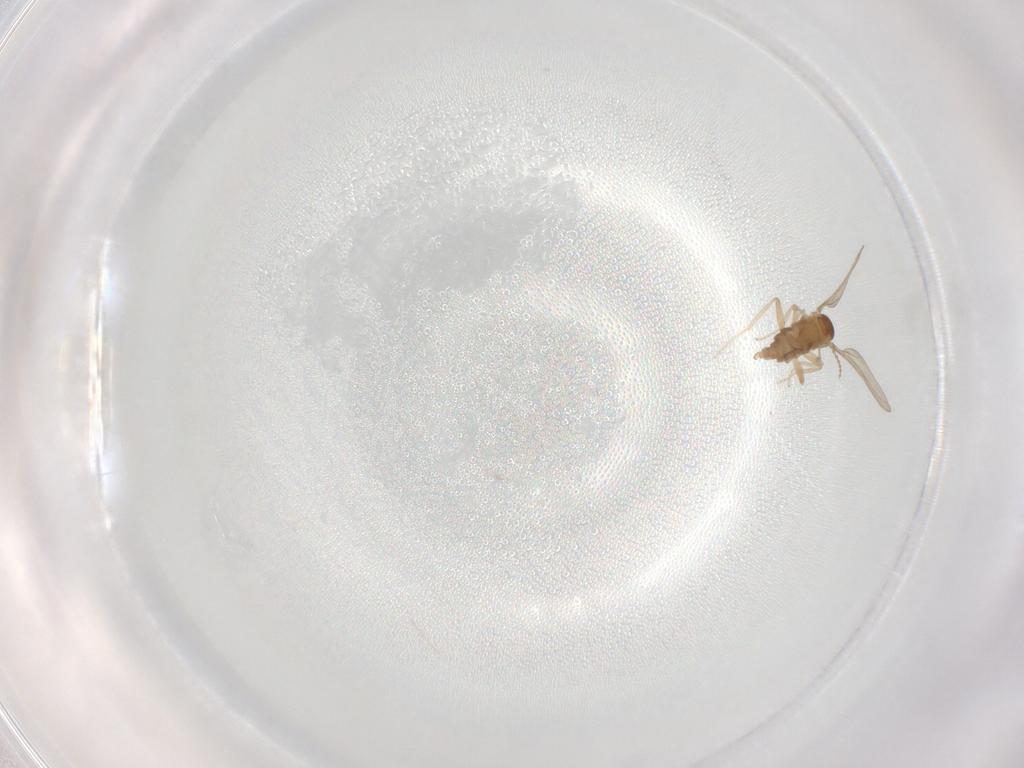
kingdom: Animalia
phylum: Arthropoda
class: Insecta
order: Diptera
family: Cecidomyiidae
